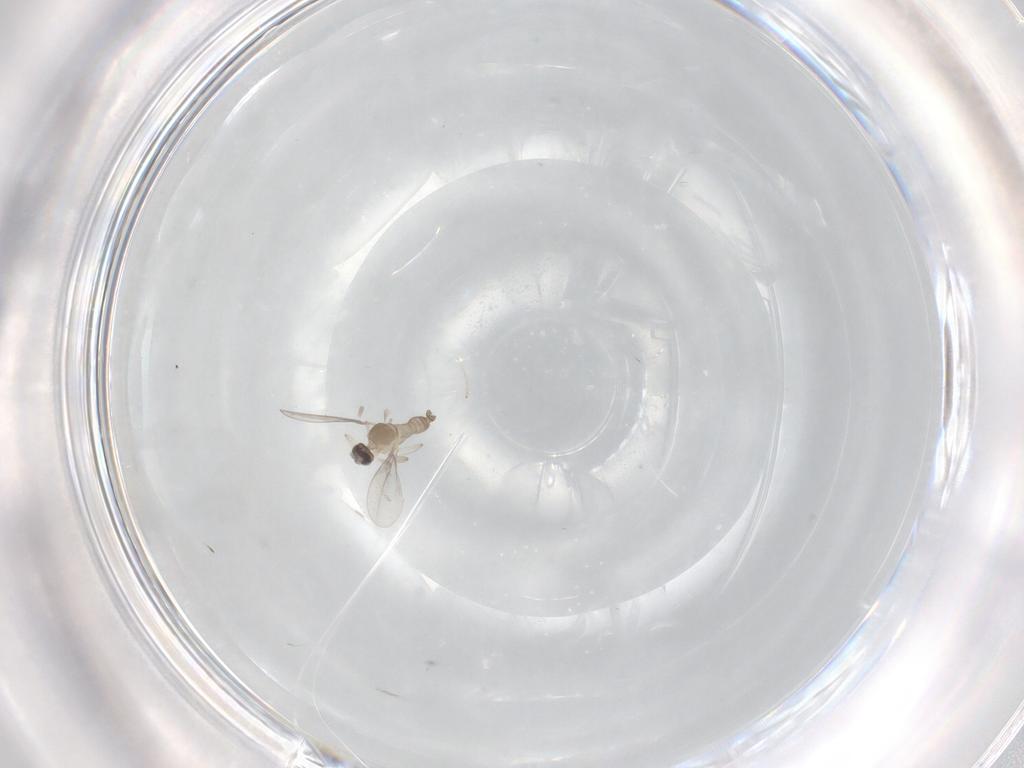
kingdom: Animalia
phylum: Arthropoda
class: Insecta
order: Diptera
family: Cecidomyiidae
